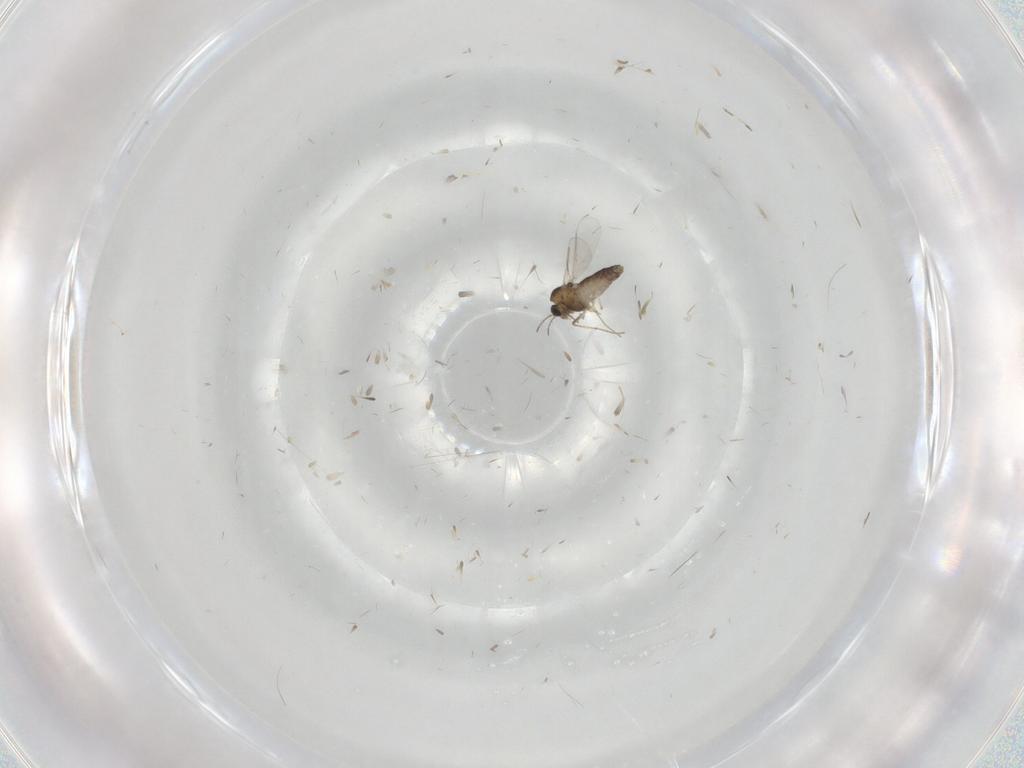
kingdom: Animalia
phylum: Arthropoda
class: Insecta
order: Diptera
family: Chironomidae
